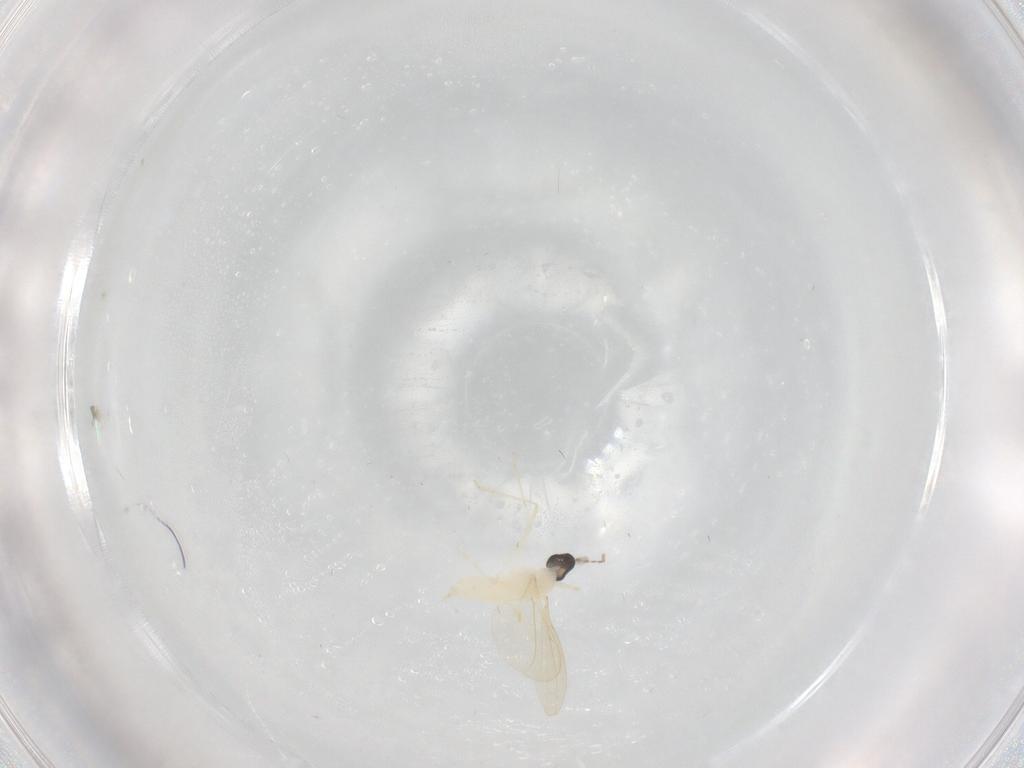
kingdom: Animalia
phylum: Arthropoda
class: Insecta
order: Diptera
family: Cecidomyiidae
